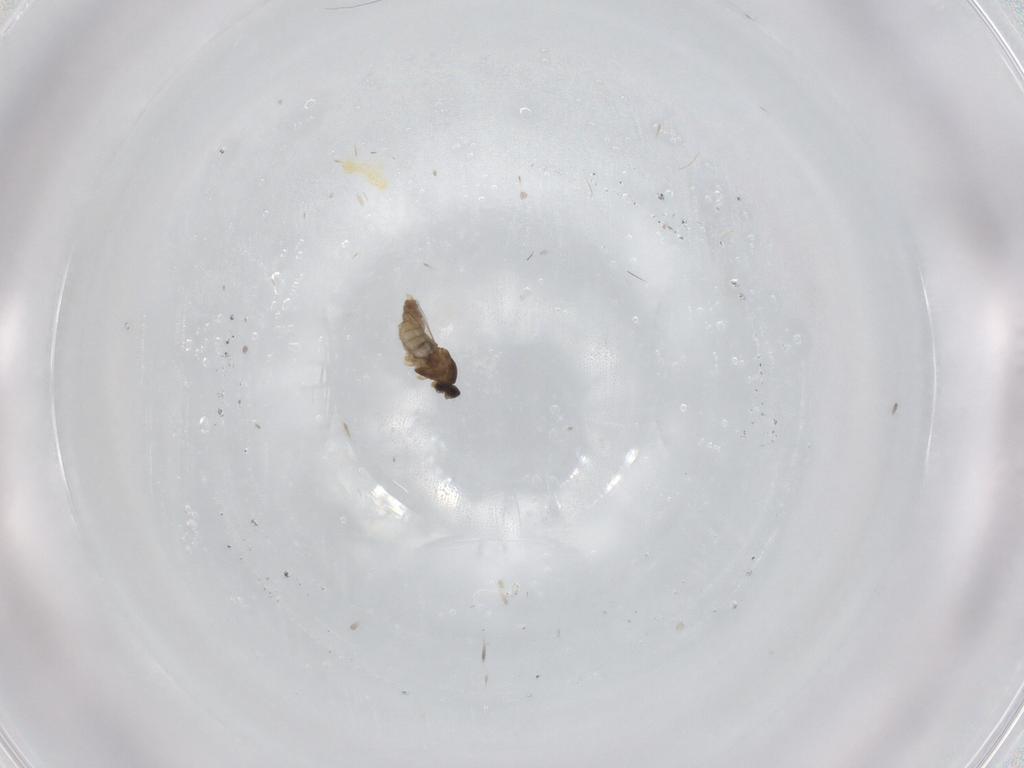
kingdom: Animalia
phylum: Arthropoda
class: Insecta
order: Diptera
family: Cecidomyiidae
